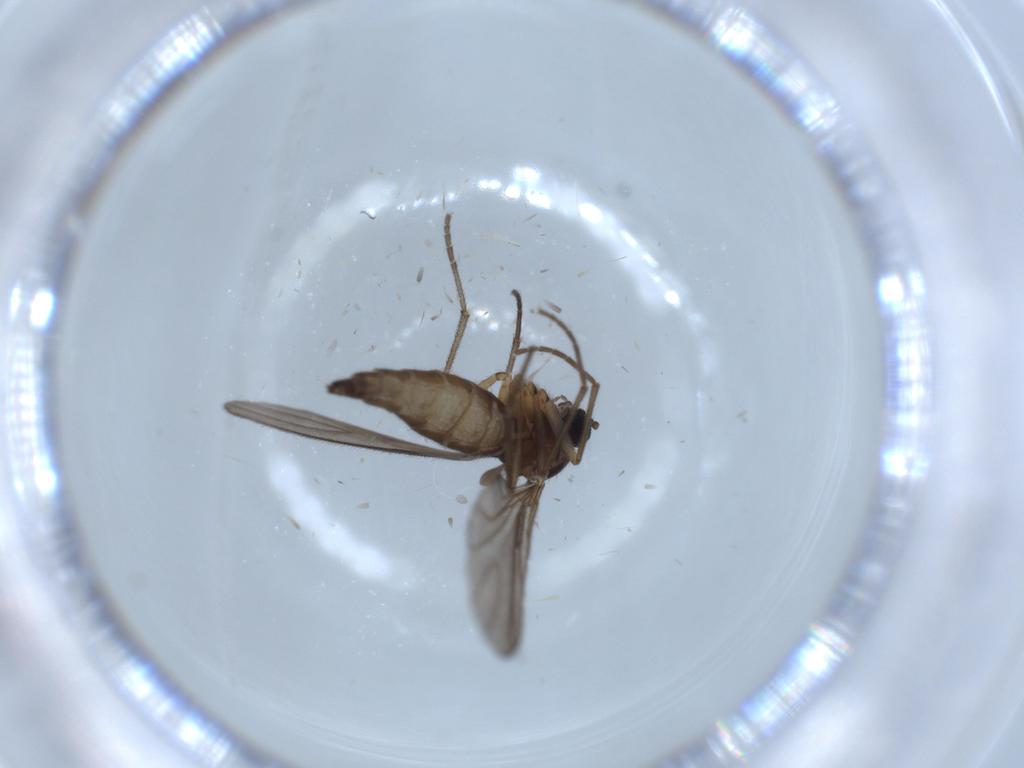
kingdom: Animalia
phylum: Arthropoda
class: Insecta
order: Diptera
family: Sciaridae
